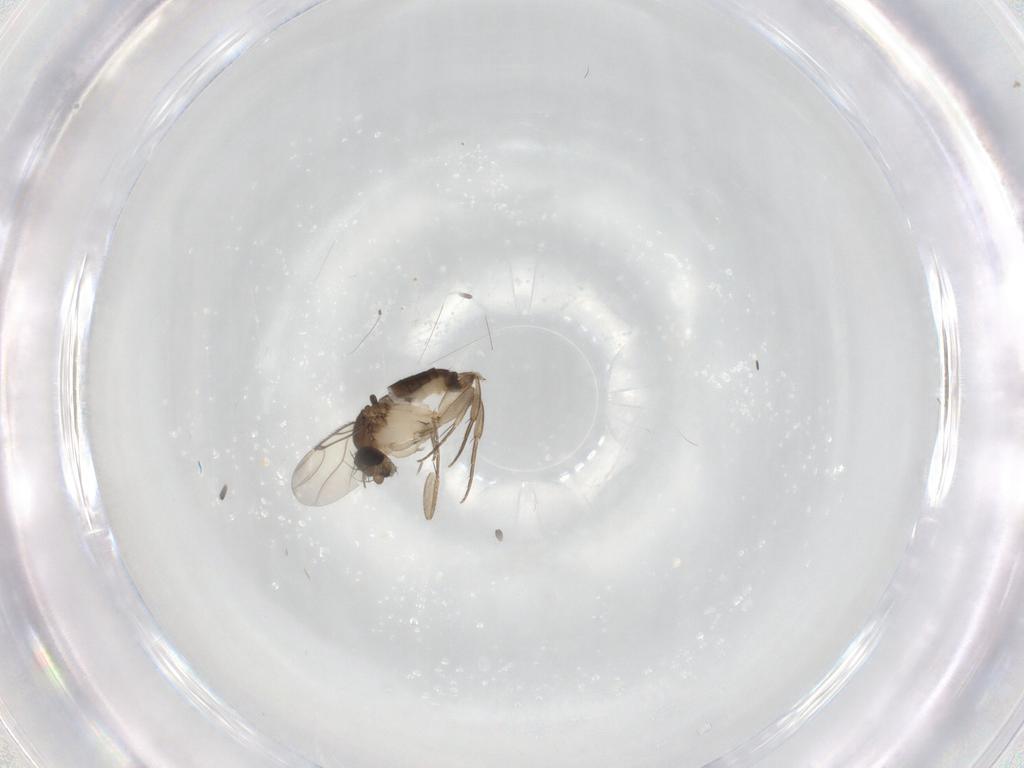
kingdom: Animalia
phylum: Arthropoda
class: Insecta
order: Diptera
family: Phoridae
